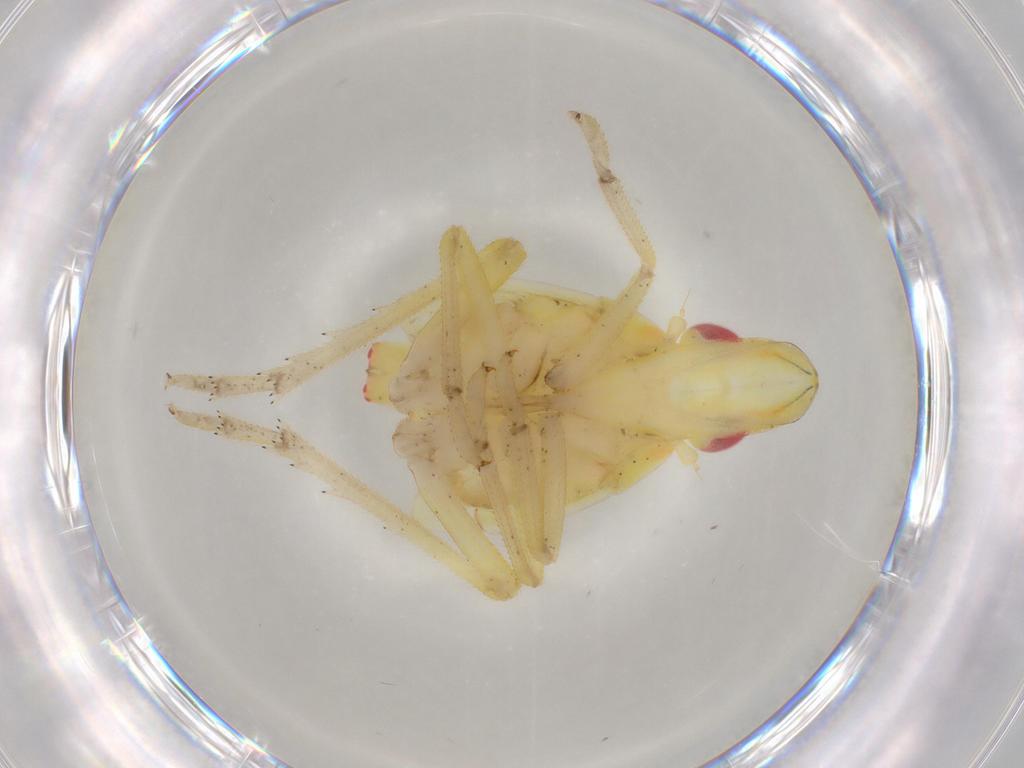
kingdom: Animalia
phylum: Arthropoda
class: Insecta
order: Hemiptera
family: Tropiduchidae
